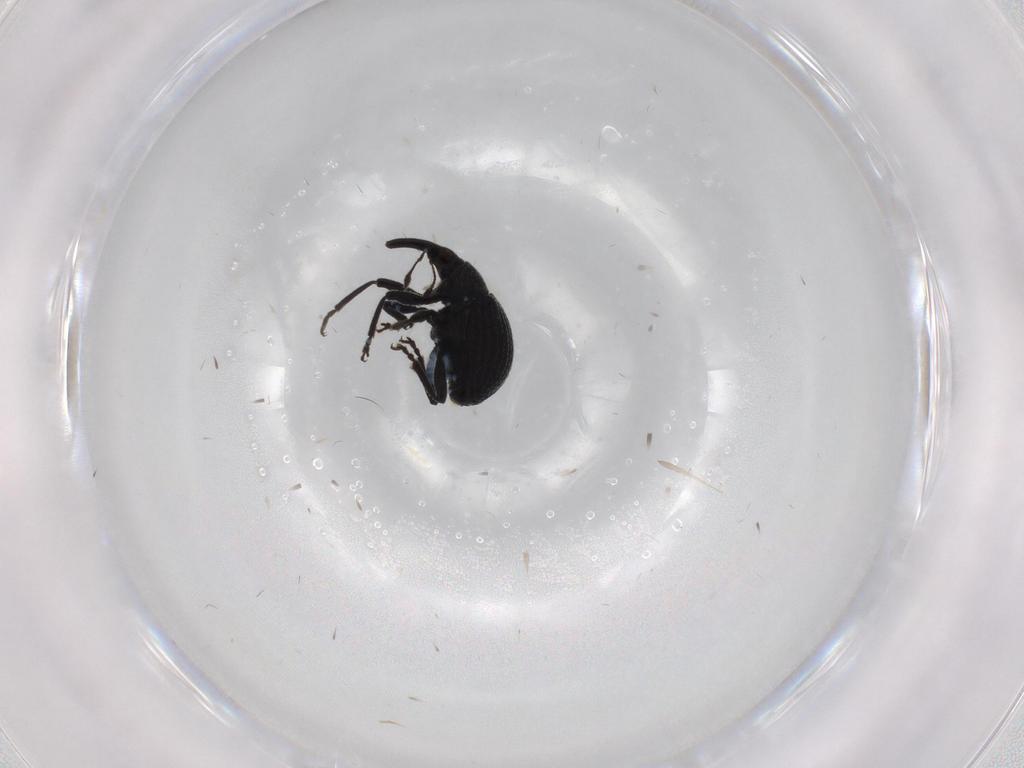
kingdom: Animalia
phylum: Arthropoda
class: Insecta
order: Coleoptera
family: Brentidae
